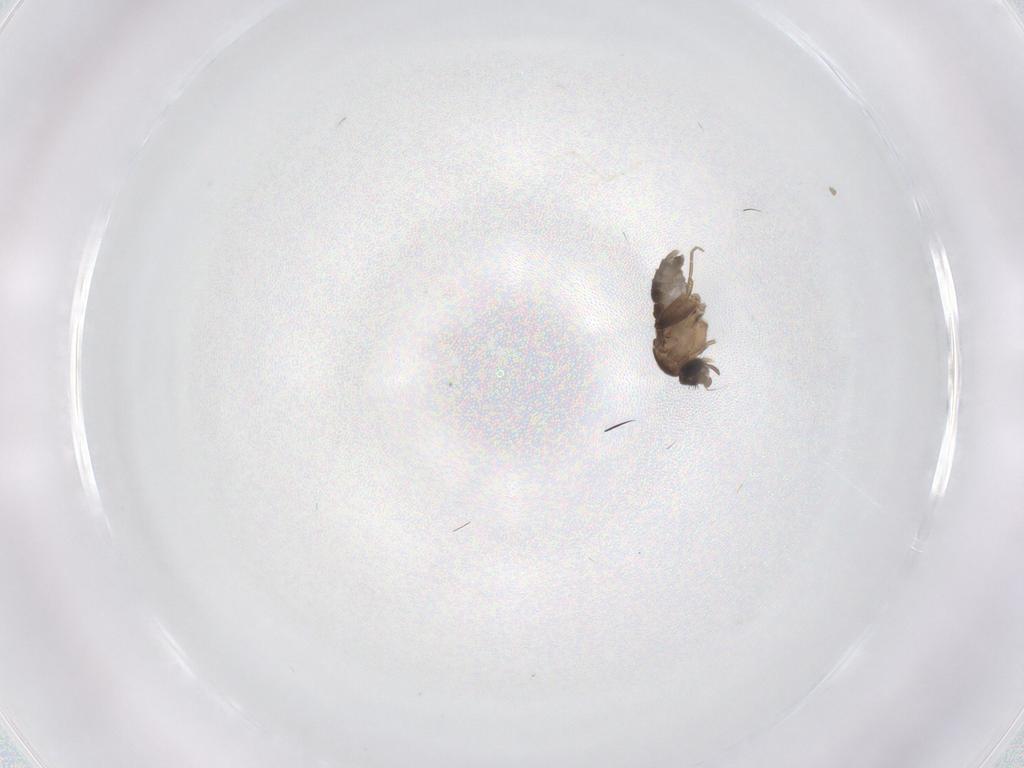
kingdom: Animalia
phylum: Arthropoda
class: Insecta
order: Diptera
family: Phoridae
